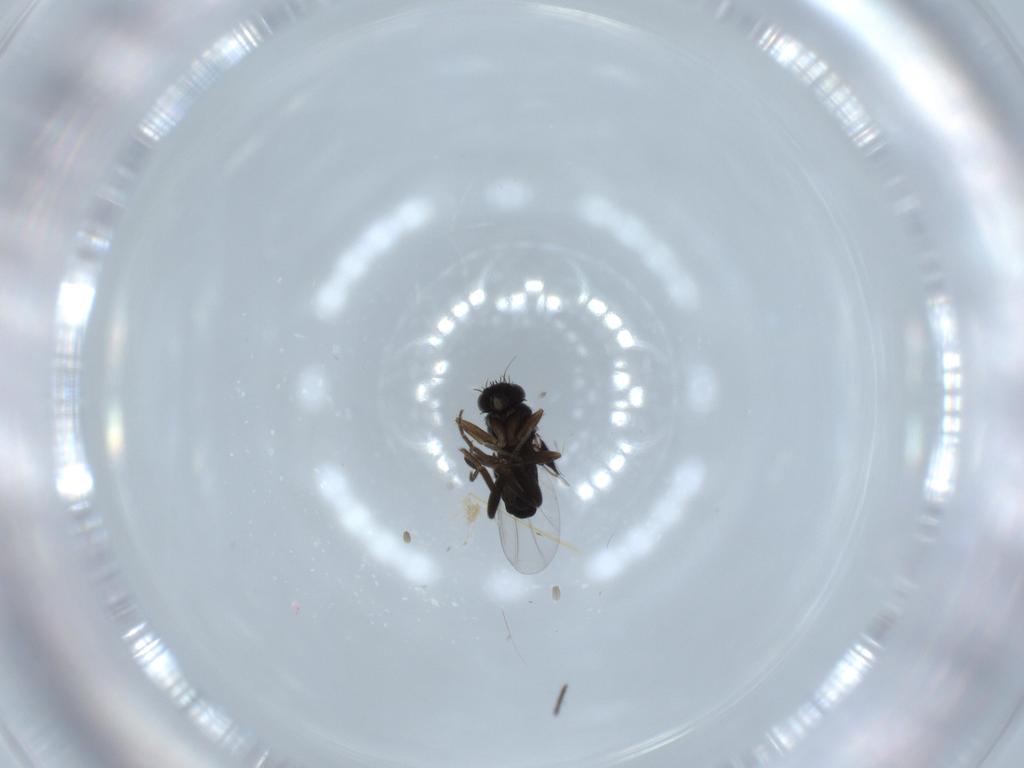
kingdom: Animalia
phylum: Arthropoda
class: Insecta
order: Diptera
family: Phoridae
